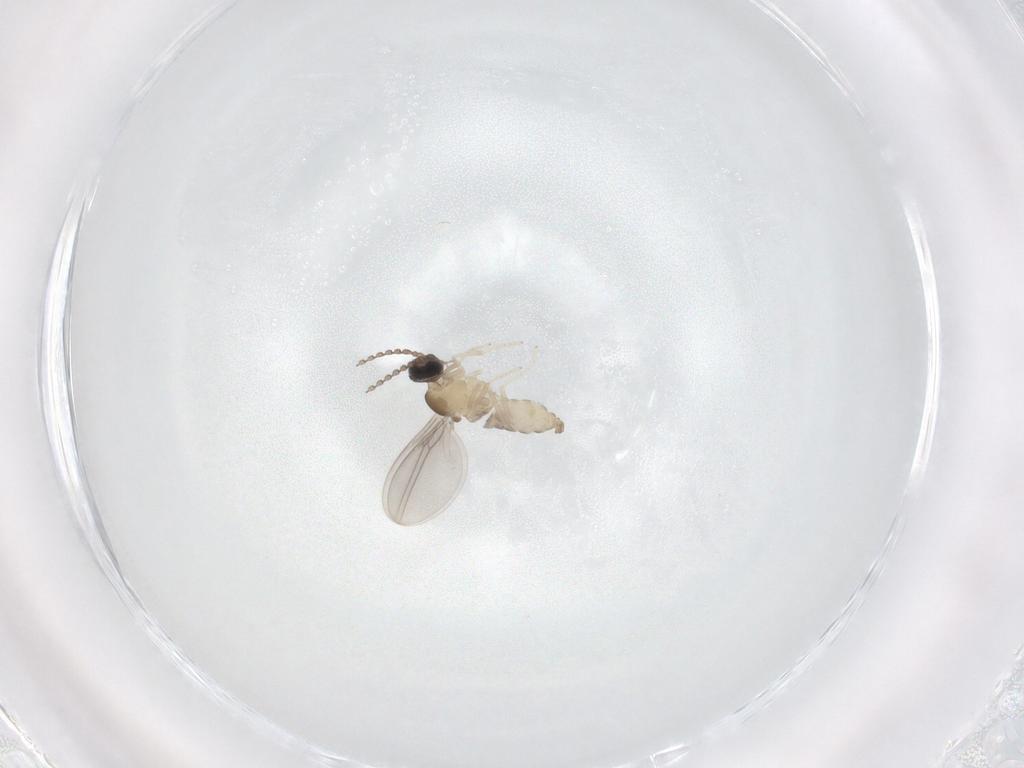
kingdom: Animalia
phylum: Arthropoda
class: Insecta
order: Diptera
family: Cecidomyiidae
